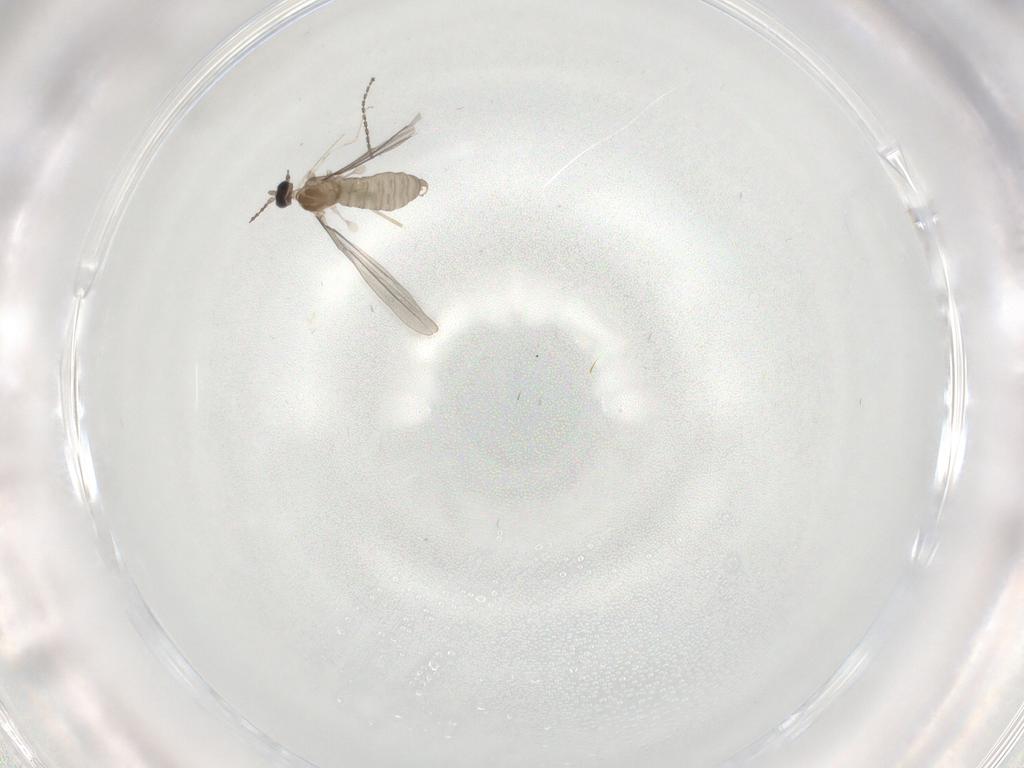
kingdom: Animalia
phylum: Arthropoda
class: Insecta
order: Diptera
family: Cecidomyiidae
